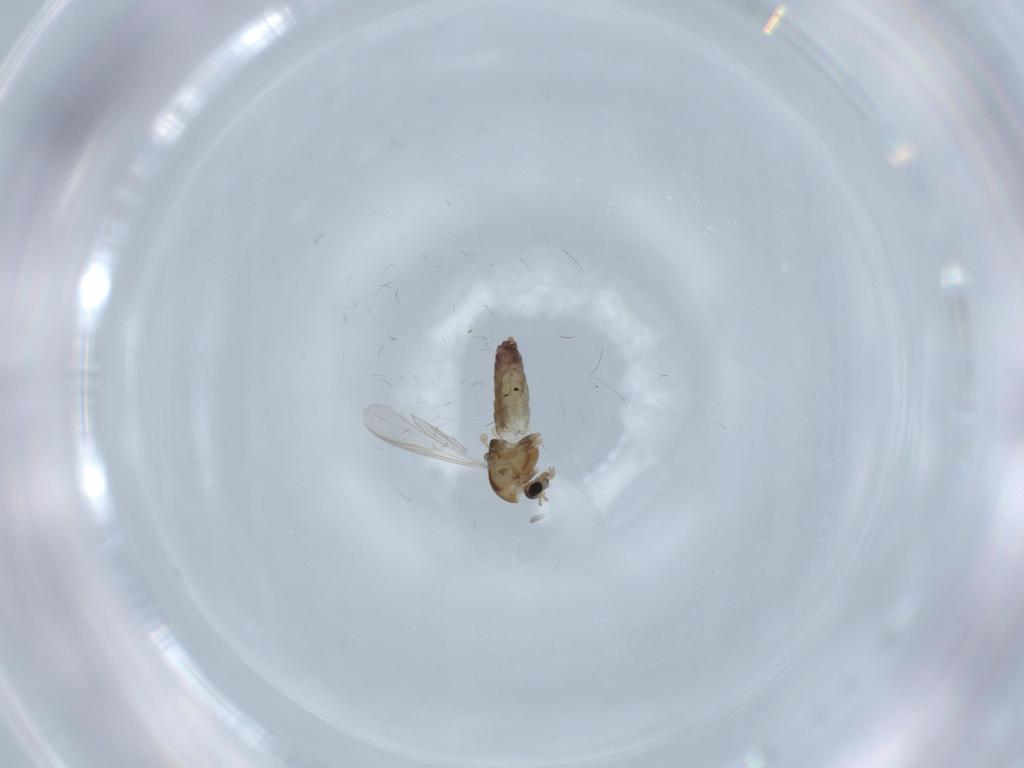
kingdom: Animalia
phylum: Arthropoda
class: Insecta
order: Diptera
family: Chironomidae
